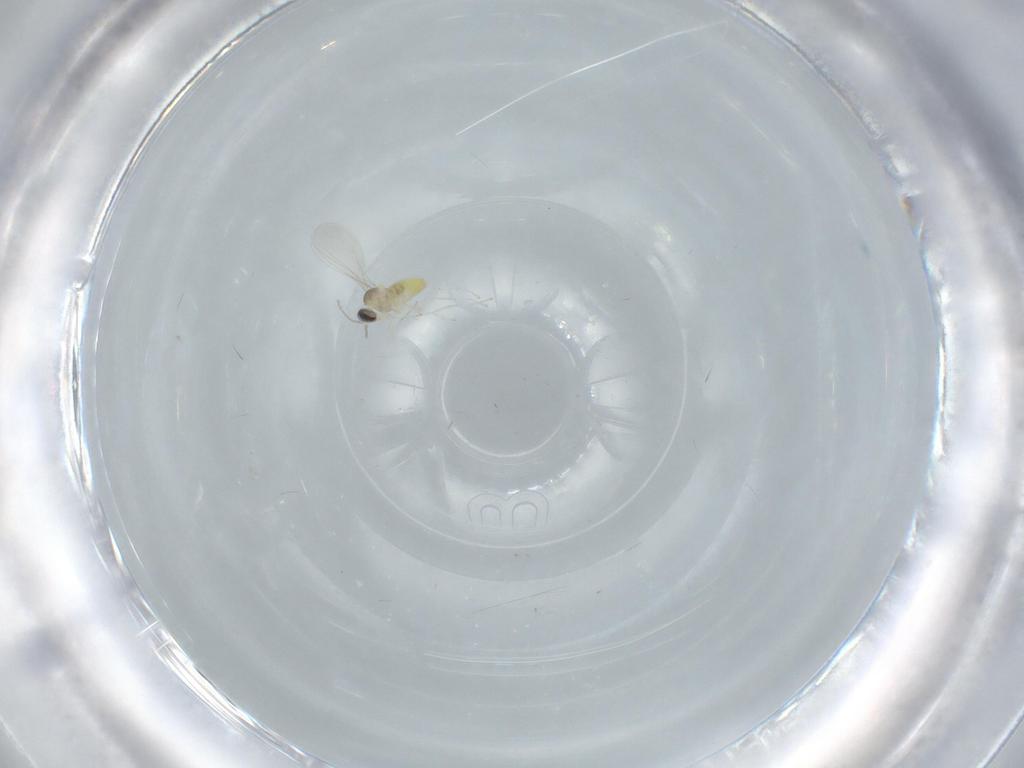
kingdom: Animalia
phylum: Arthropoda
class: Insecta
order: Diptera
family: Cecidomyiidae
